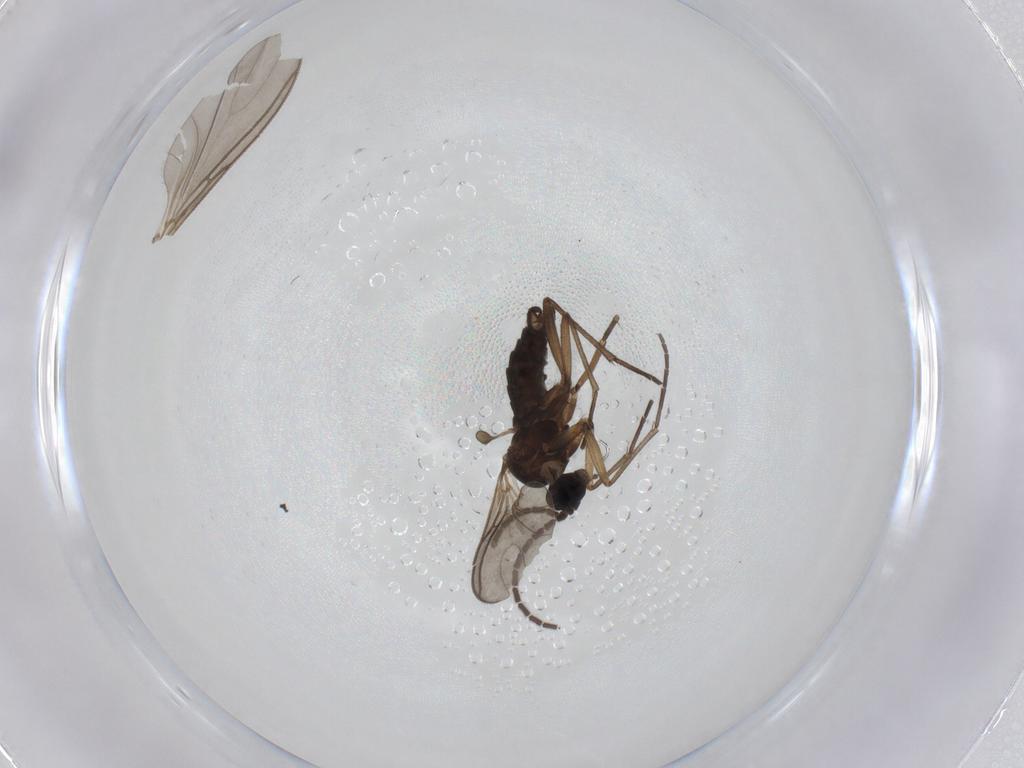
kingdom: Animalia
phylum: Arthropoda
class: Insecta
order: Diptera
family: Sciaridae
